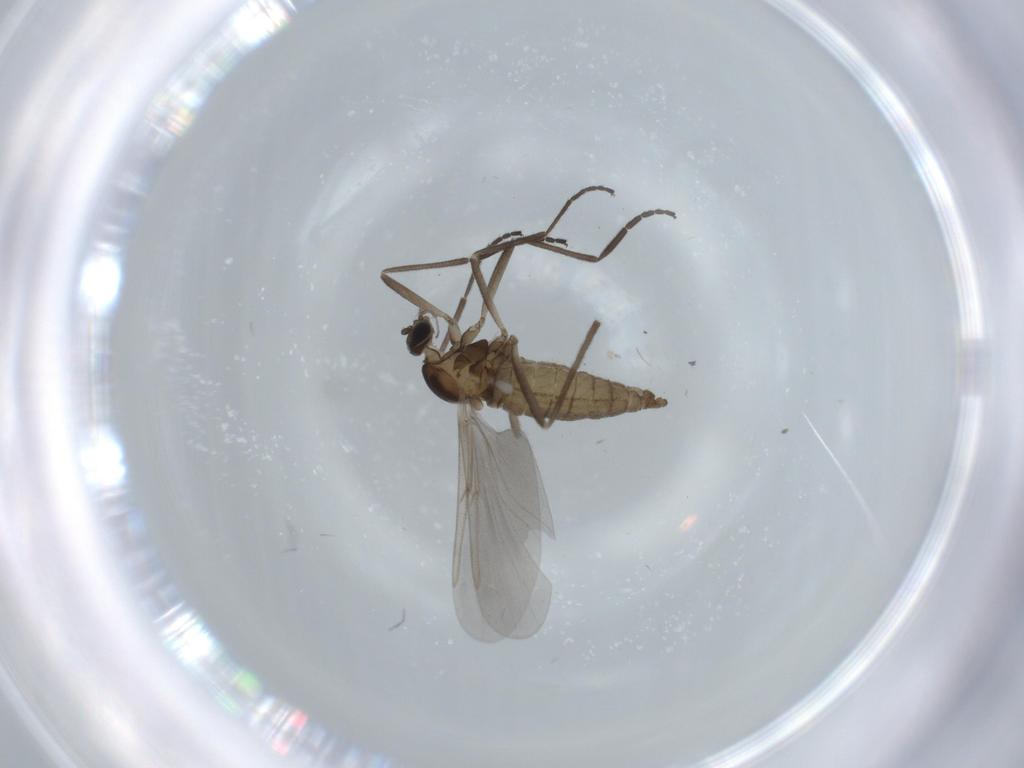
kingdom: Animalia
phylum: Arthropoda
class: Insecta
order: Diptera
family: Cecidomyiidae
